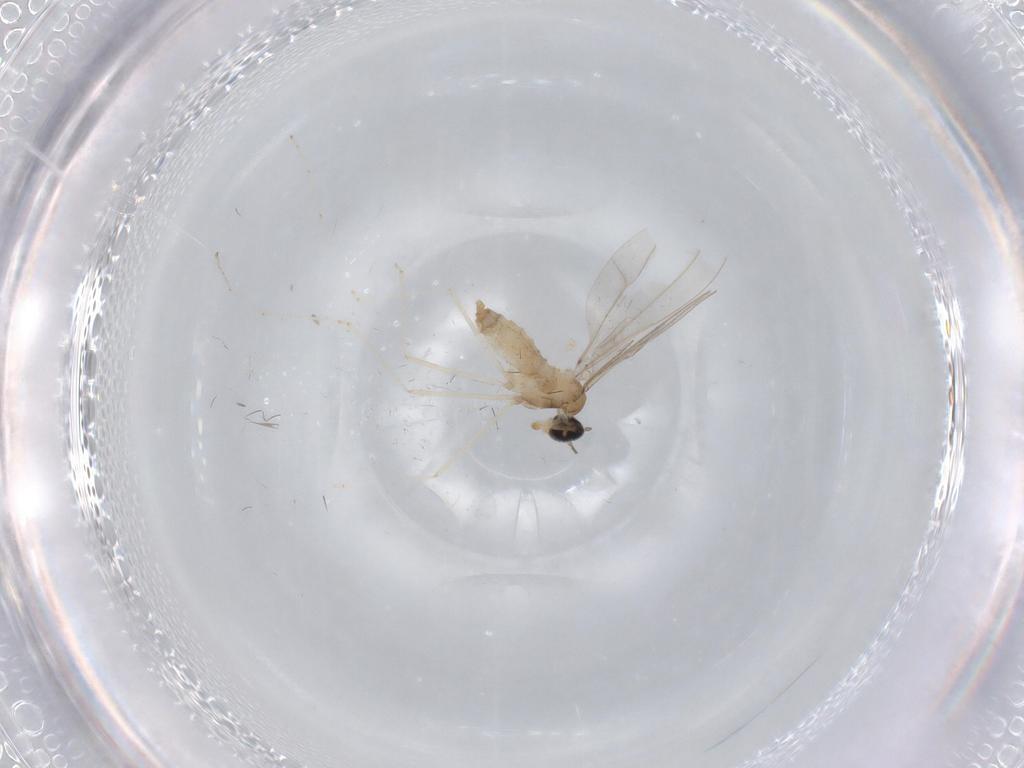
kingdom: Animalia
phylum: Arthropoda
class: Insecta
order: Diptera
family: Cecidomyiidae
